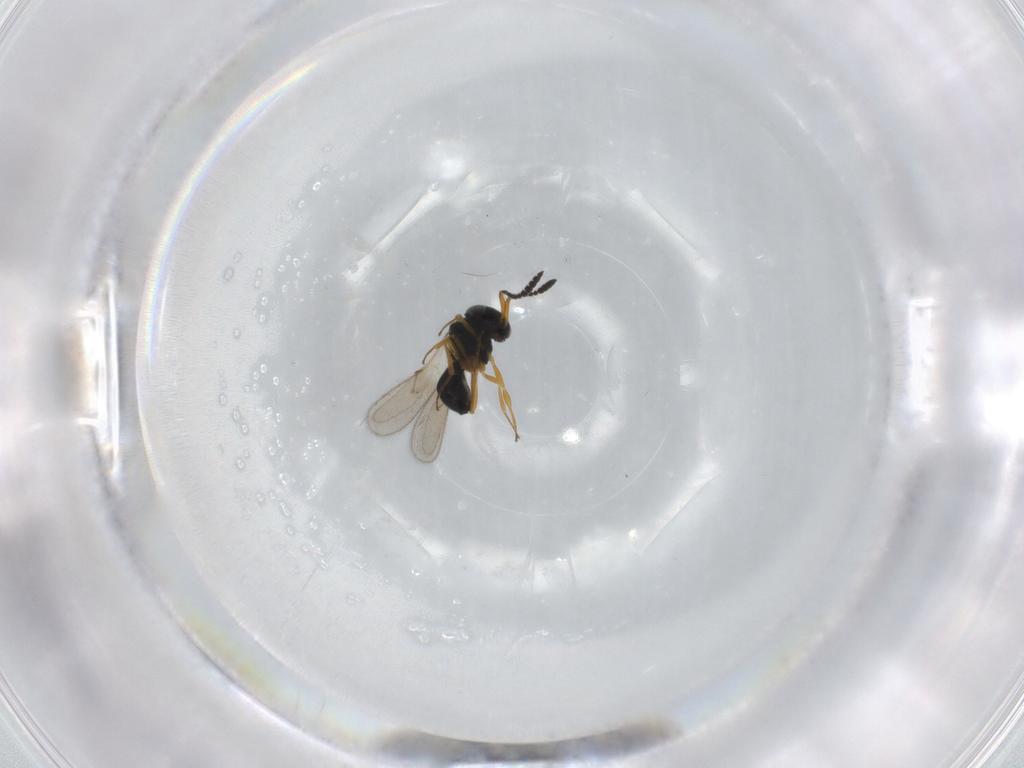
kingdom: Animalia
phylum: Arthropoda
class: Insecta
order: Hymenoptera
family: Scelionidae
